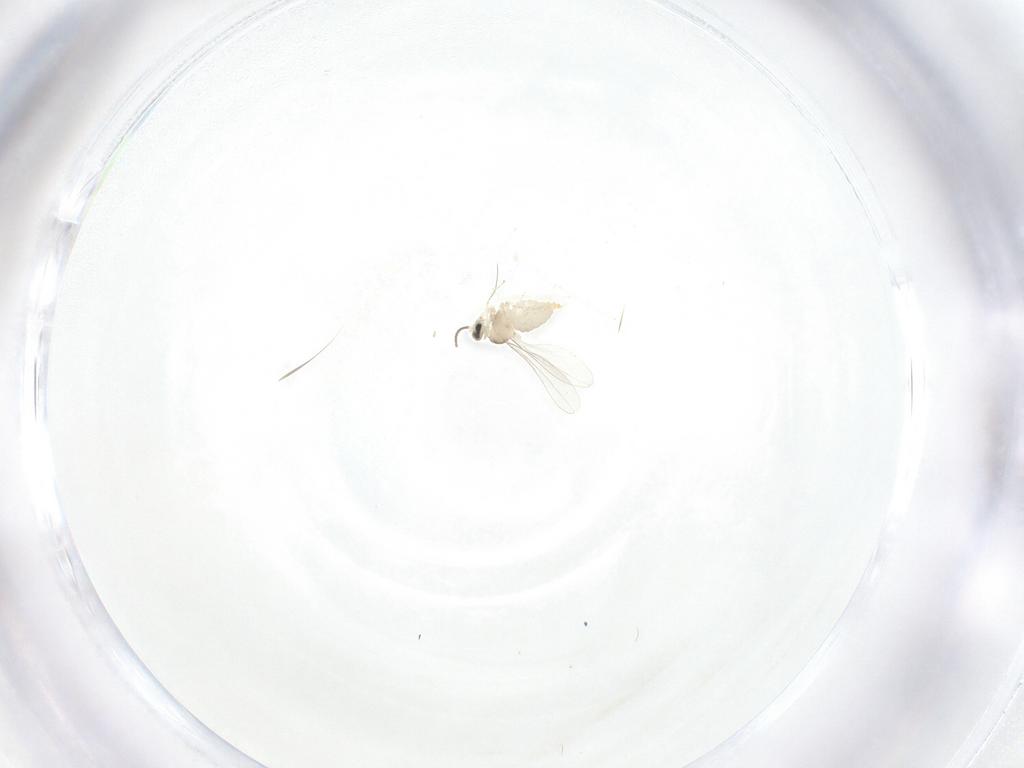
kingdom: Animalia
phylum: Arthropoda
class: Insecta
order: Diptera
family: Cecidomyiidae
